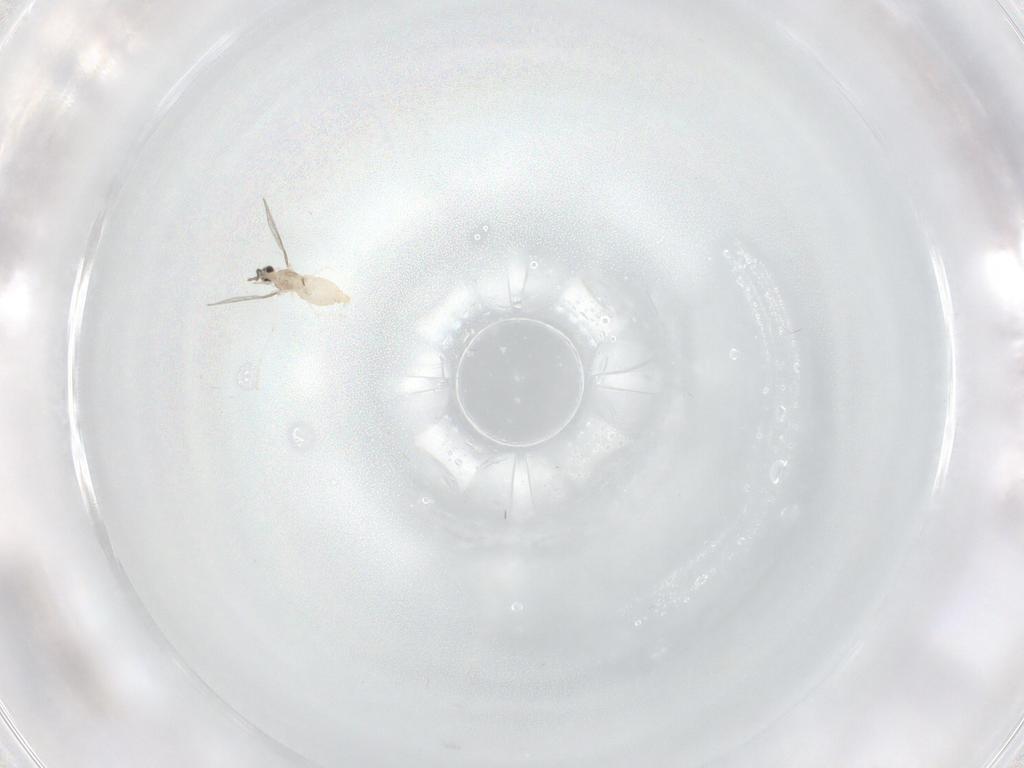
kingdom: Animalia
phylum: Arthropoda
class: Insecta
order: Diptera
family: Cecidomyiidae
